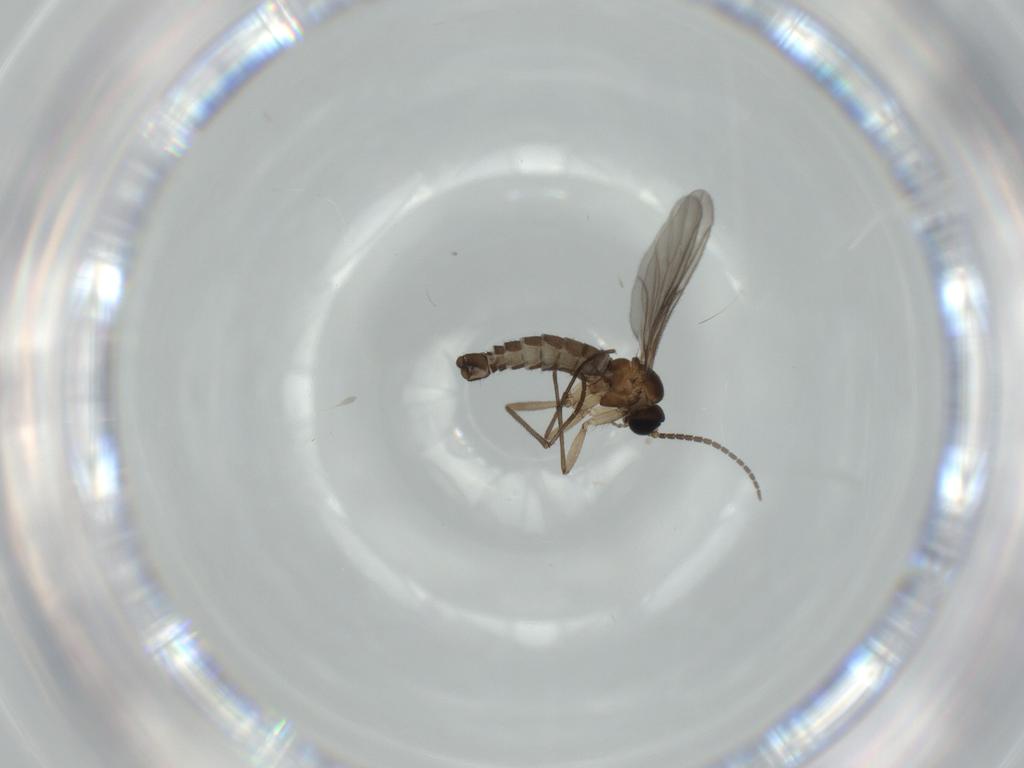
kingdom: Animalia
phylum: Arthropoda
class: Insecta
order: Diptera
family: Sciaridae
